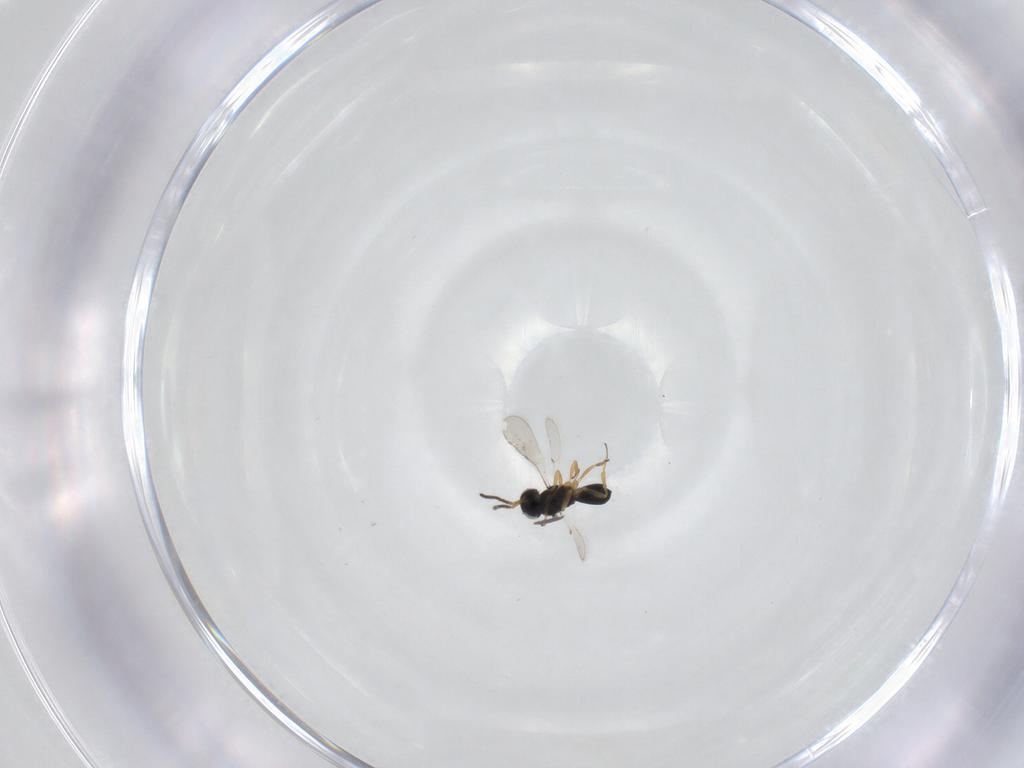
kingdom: Animalia
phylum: Arthropoda
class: Insecta
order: Hymenoptera
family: Scelionidae
